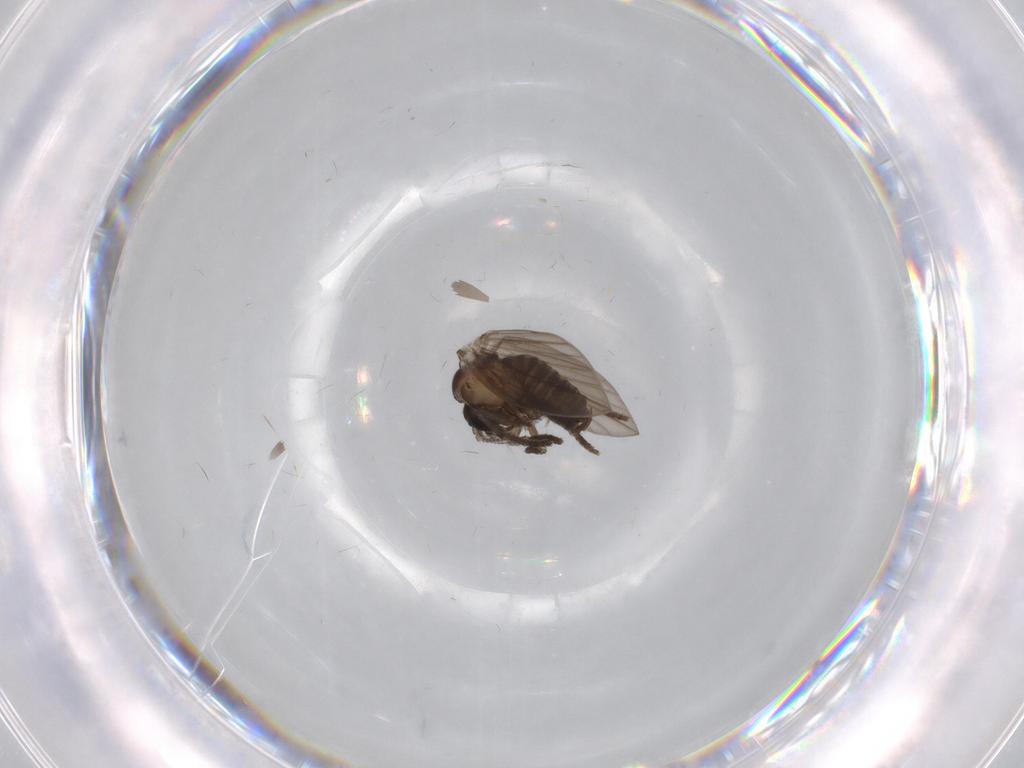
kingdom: Animalia
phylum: Arthropoda
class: Insecta
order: Diptera
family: Psychodidae
